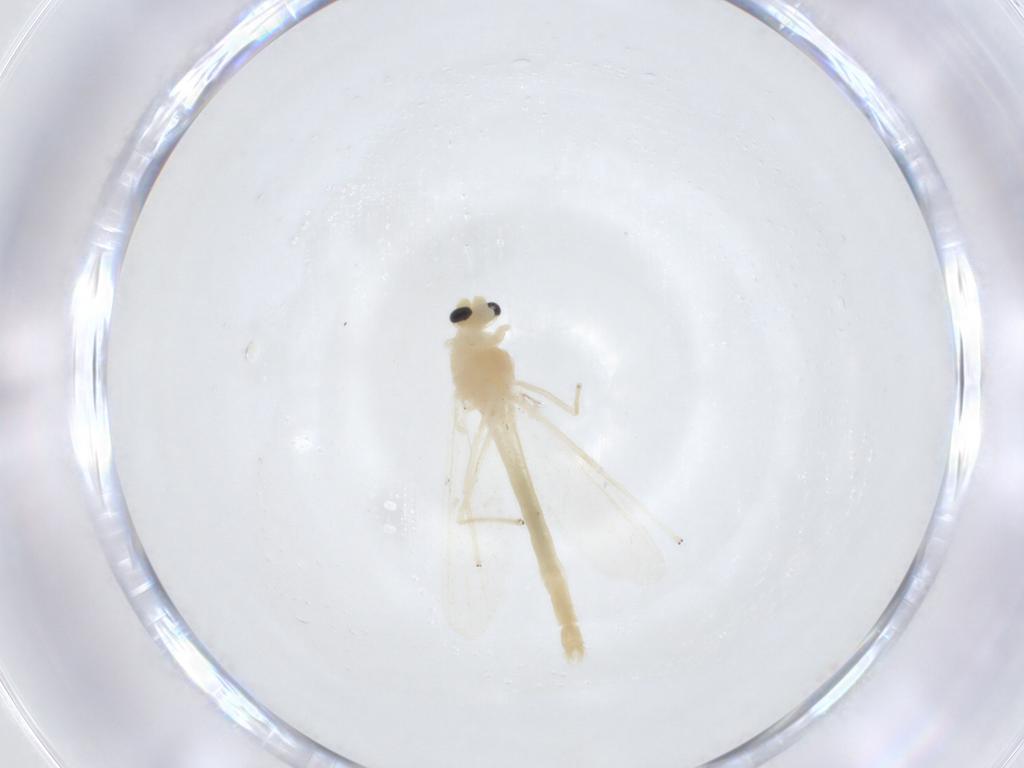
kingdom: Animalia
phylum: Arthropoda
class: Insecta
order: Diptera
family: Chironomidae
